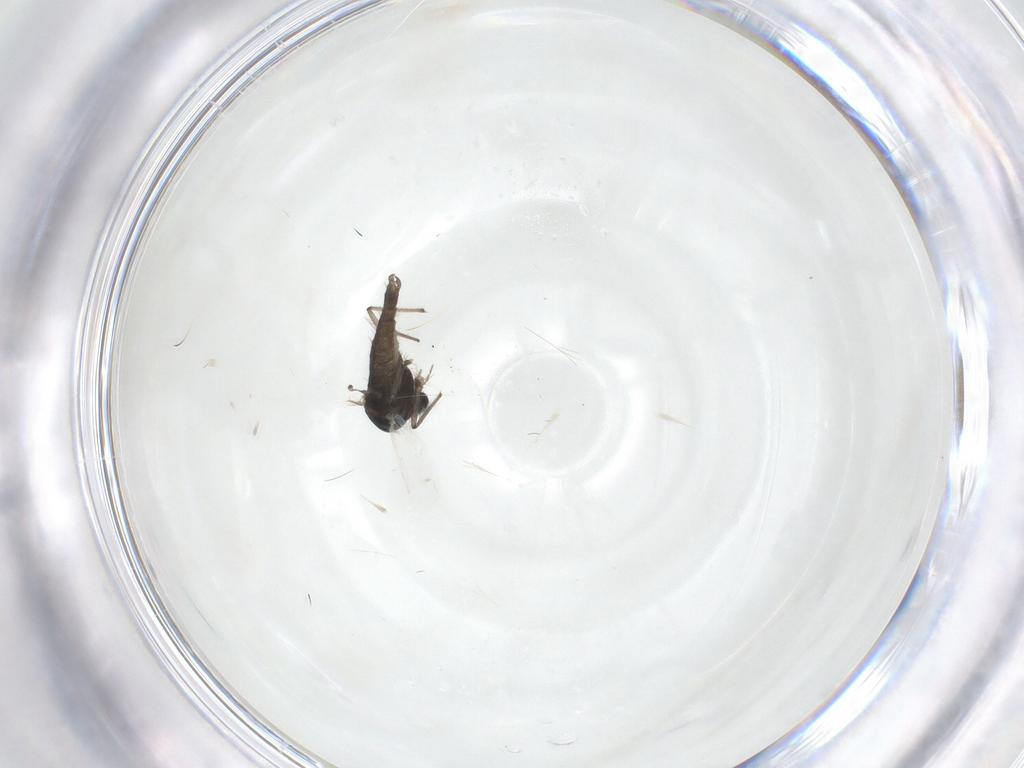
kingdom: Animalia
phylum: Arthropoda
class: Insecta
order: Diptera
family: Chironomidae
